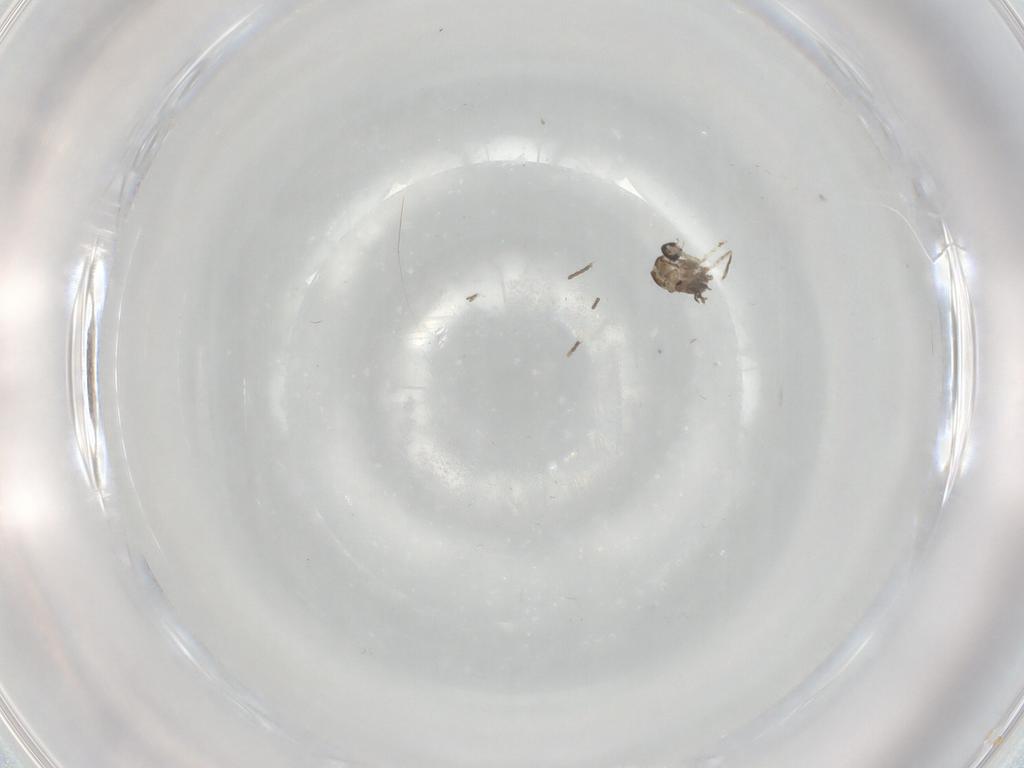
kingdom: Animalia
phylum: Arthropoda
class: Insecta
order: Diptera
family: Cecidomyiidae
